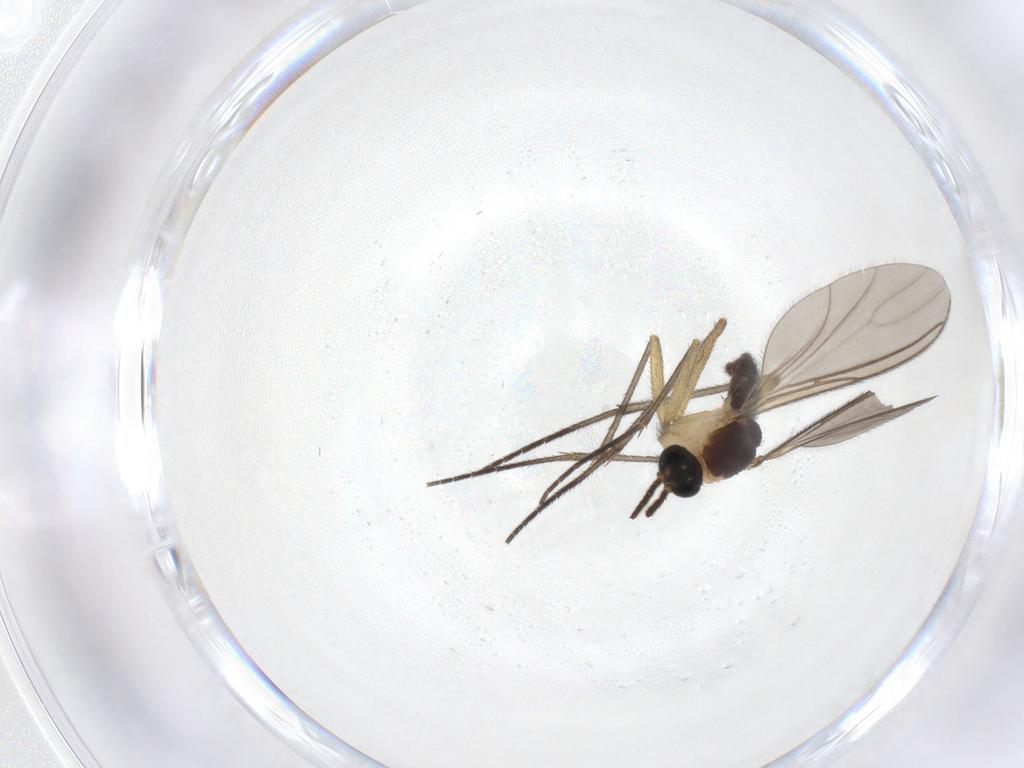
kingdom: Animalia
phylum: Arthropoda
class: Insecta
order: Diptera
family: Sciaridae
